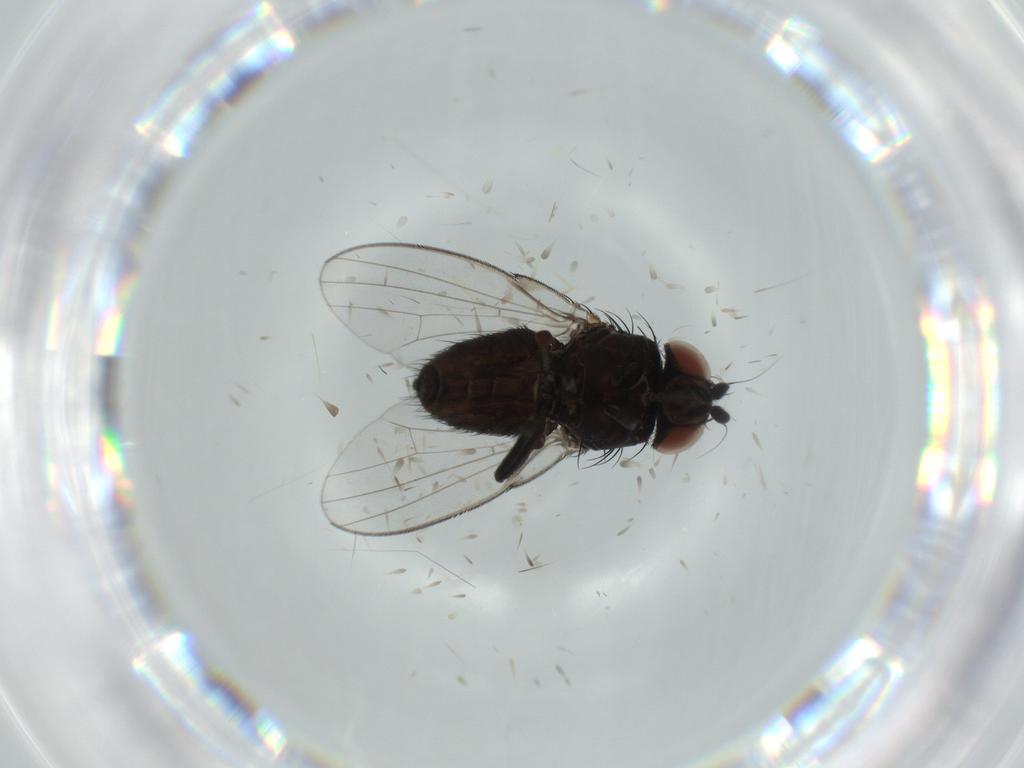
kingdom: Animalia
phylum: Arthropoda
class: Insecta
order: Diptera
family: Milichiidae
